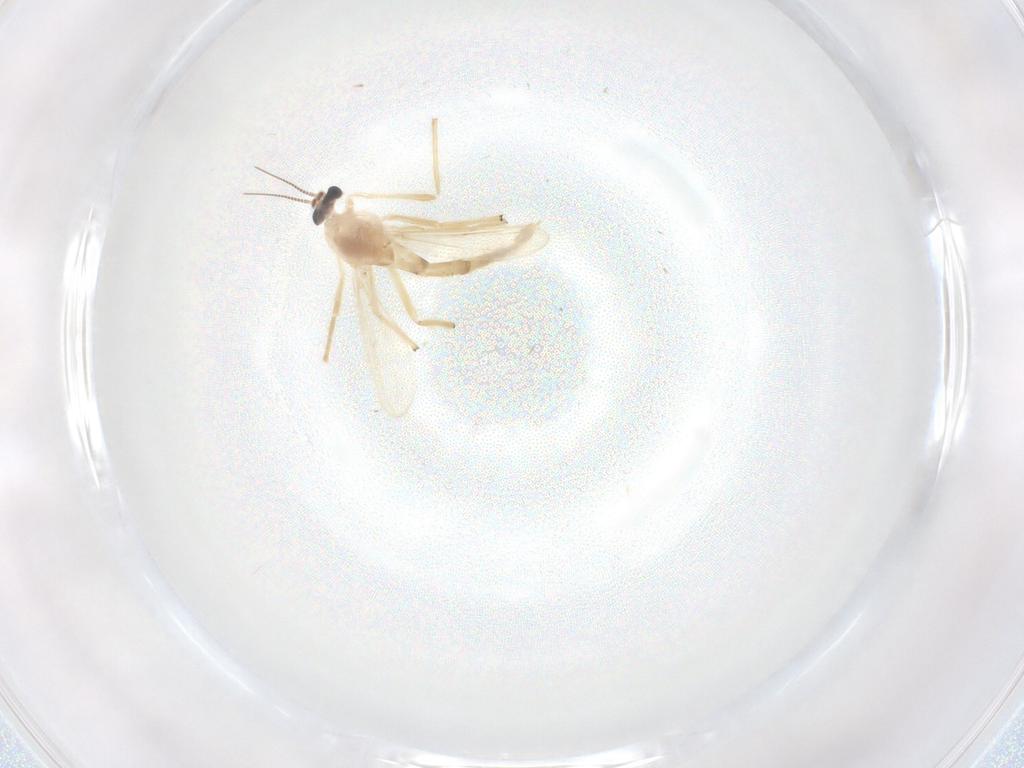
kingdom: Animalia
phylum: Arthropoda
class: Insecta
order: Diptera
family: Chironomidae
